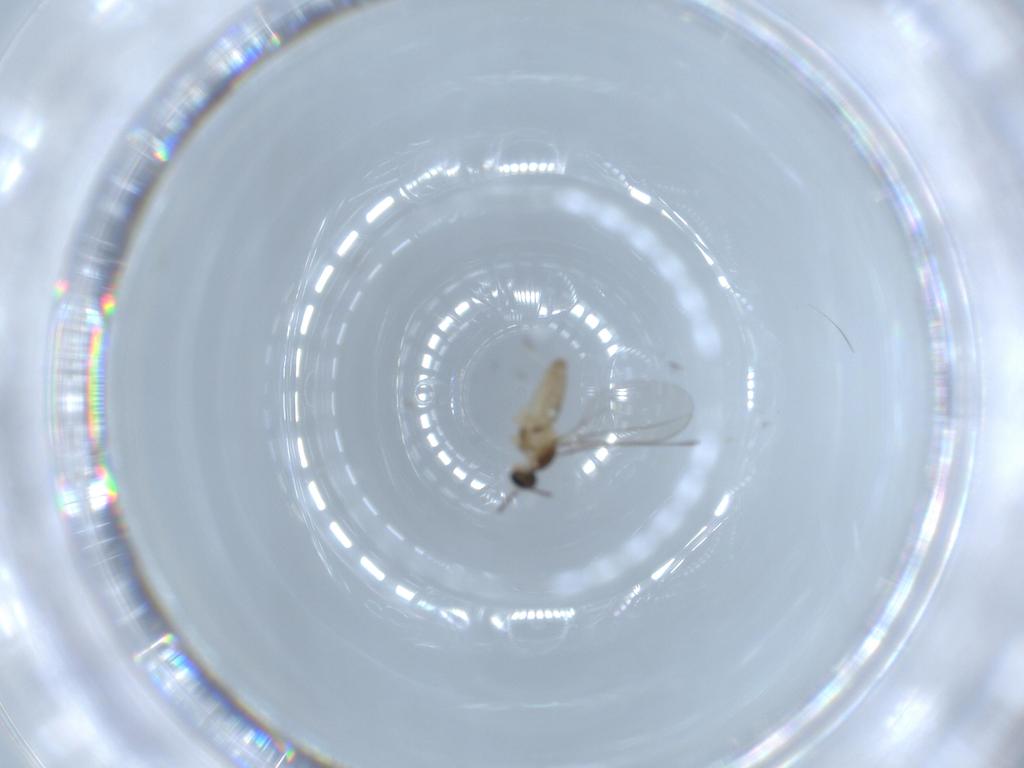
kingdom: Animalia
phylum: Arthropoda
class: Insecta
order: Diptera
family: Cecidomyiidae
